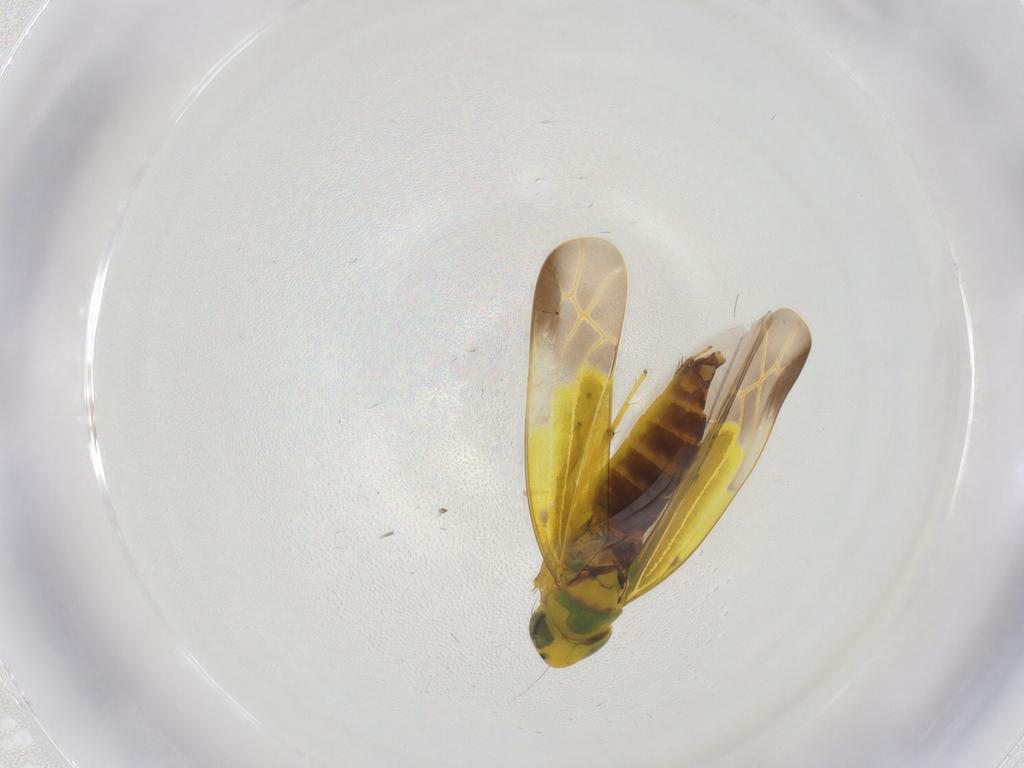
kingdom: Animalia
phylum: Arthropoda
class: Insecta
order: Hemiptera
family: Cicadellidae
